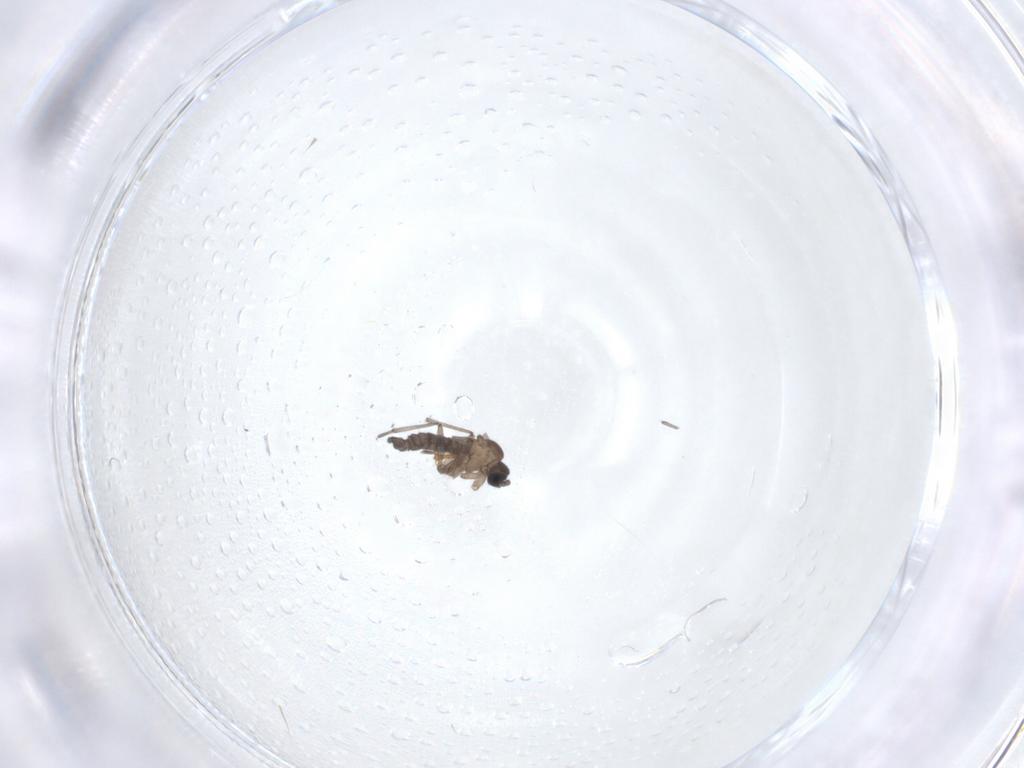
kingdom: Animalia
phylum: Arthropoda
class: Insecta
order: Diptera
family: Sciaridae
